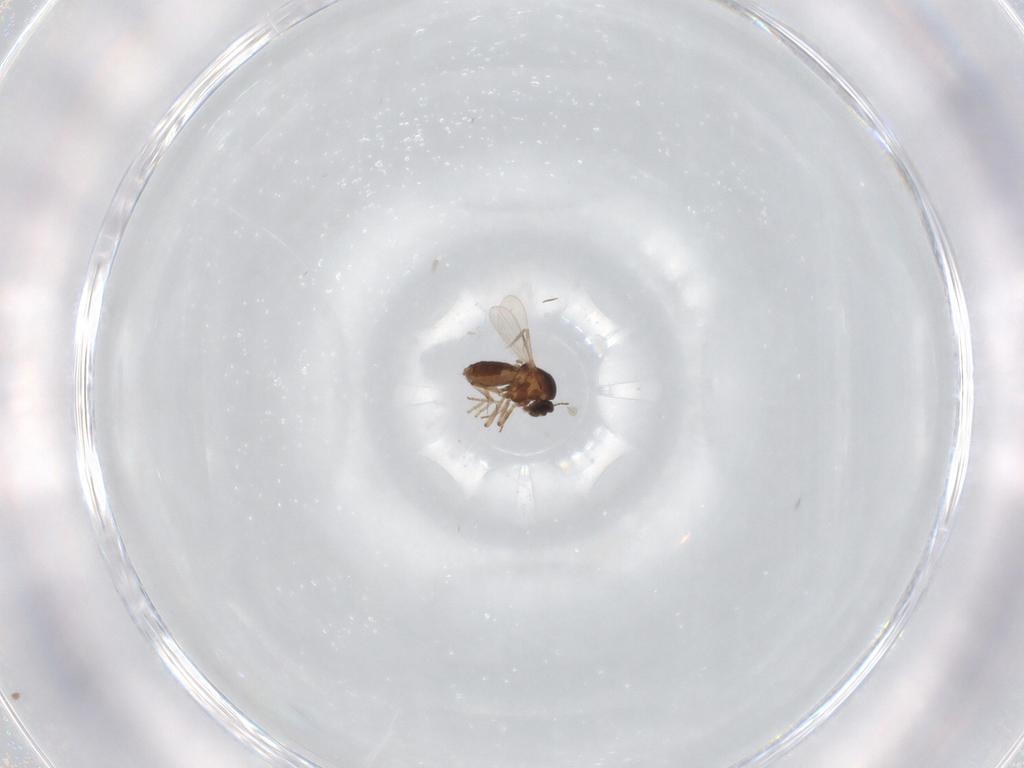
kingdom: Animalia
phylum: Arthropoda
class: Insecta
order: Diptera
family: Ceratopogonidae
